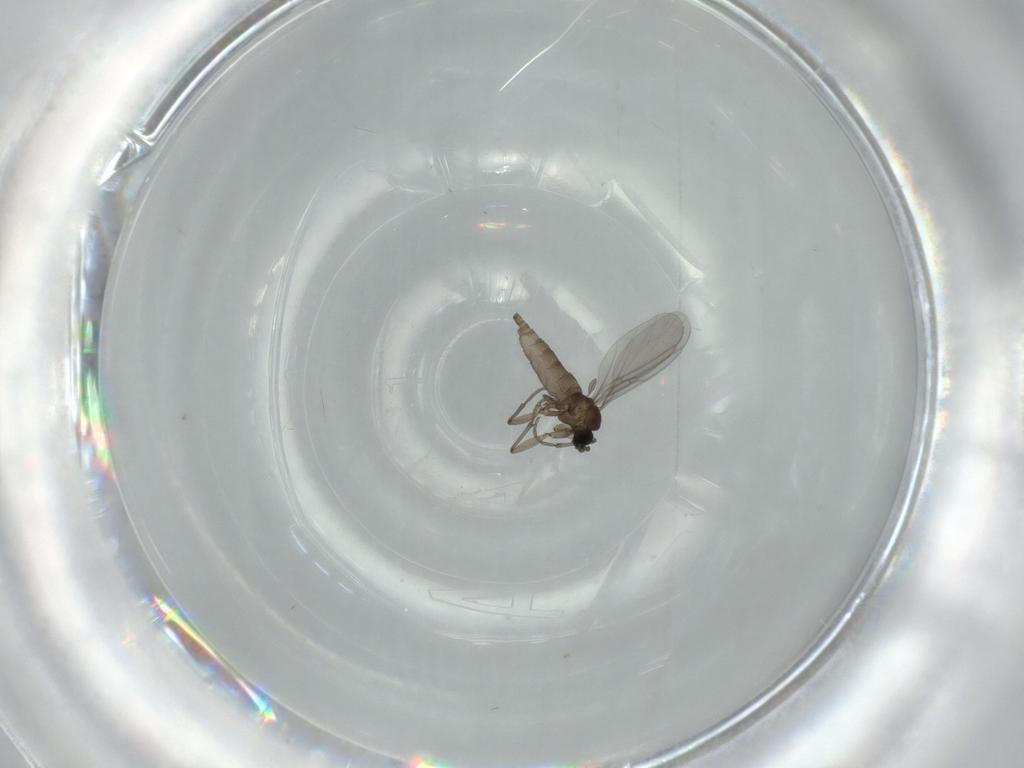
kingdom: Animalia
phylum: Arthropoda
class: Insecta
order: Diptera
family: Sciaridae
